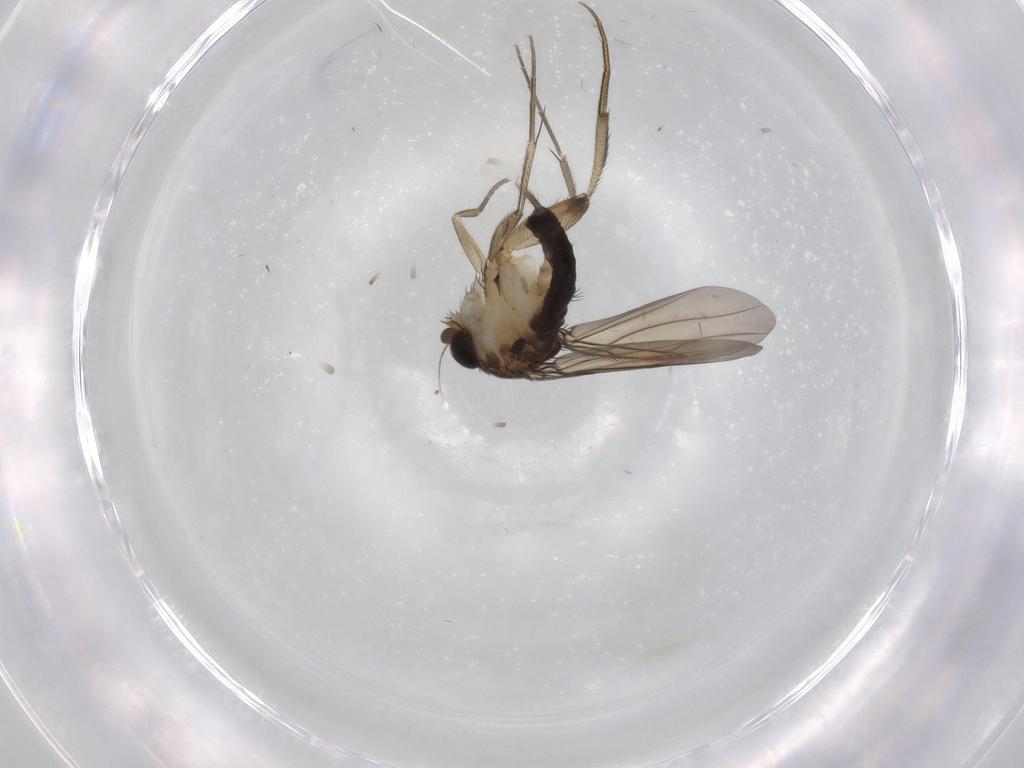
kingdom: Animalia
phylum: Arthropoda
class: Insecta
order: Diptera
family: Phoridae
